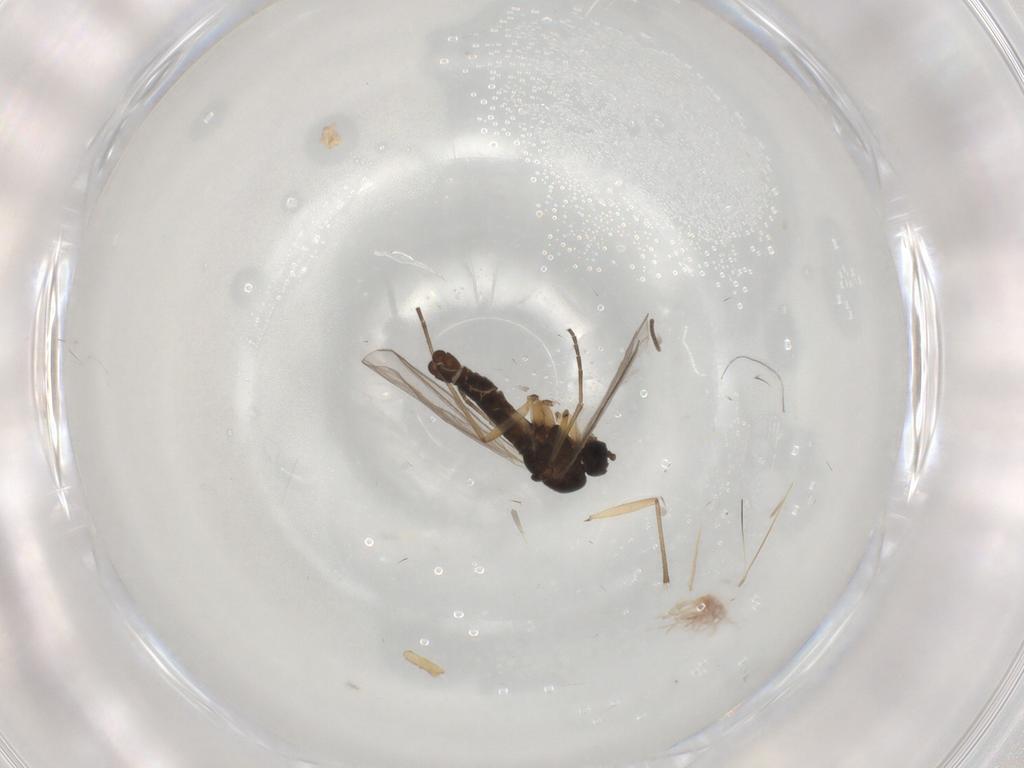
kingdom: Animalia
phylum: Arthropoda
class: Insecta
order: Diptera
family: Sciaridae
